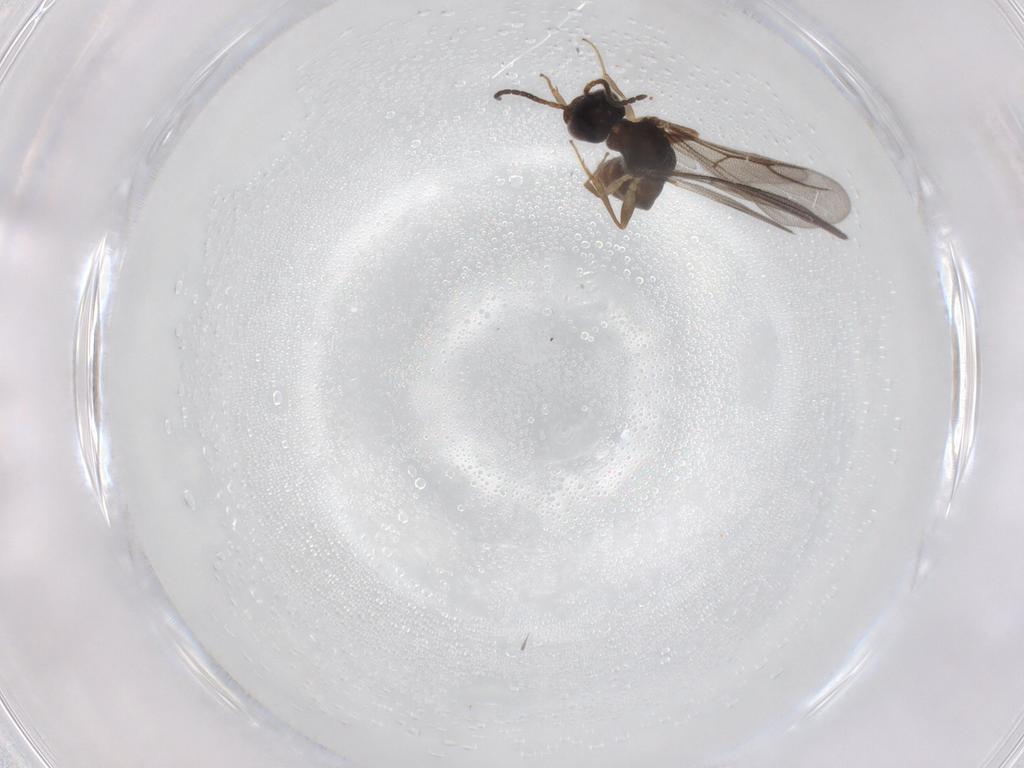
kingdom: Animalia
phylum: Arthropoda
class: Insecta
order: Hymenoptera
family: Bethylidae
